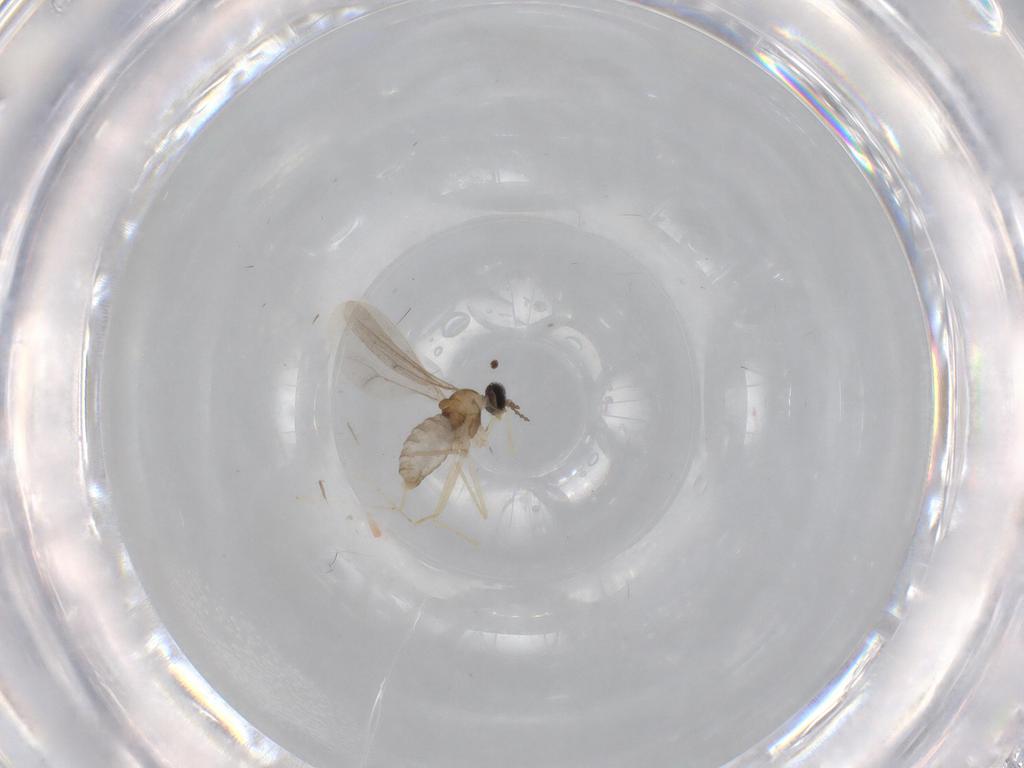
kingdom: Animalia
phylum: Arthropoda
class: Insecta
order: Diptera
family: Cecidomyiidae
